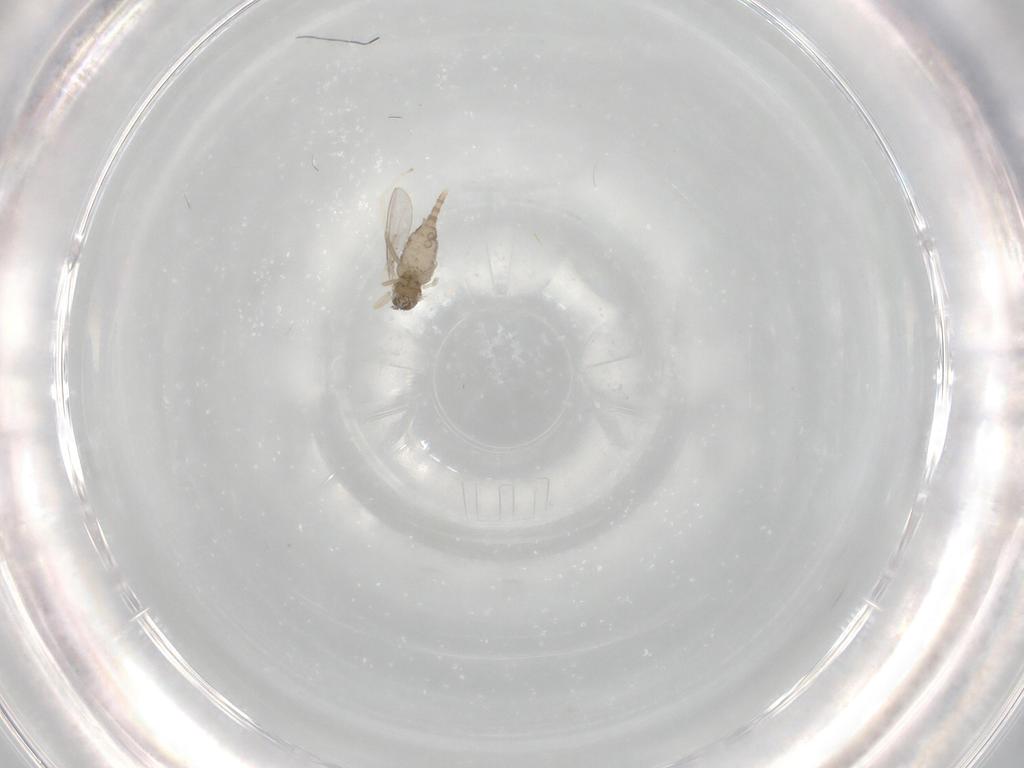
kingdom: Animalia
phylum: Arthropoda
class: Insecta
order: Diptera
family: Cecidomyiidae
